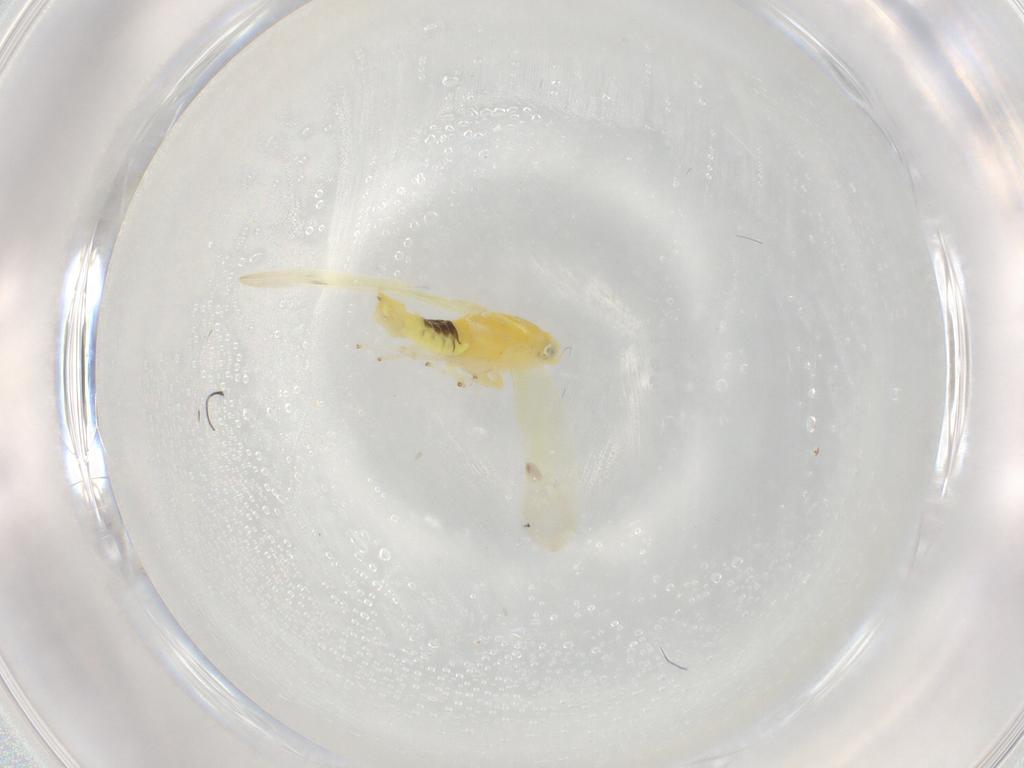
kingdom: Animalia
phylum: Arthropoda
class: Insecta
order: Hemiptera
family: Cicadellidae
